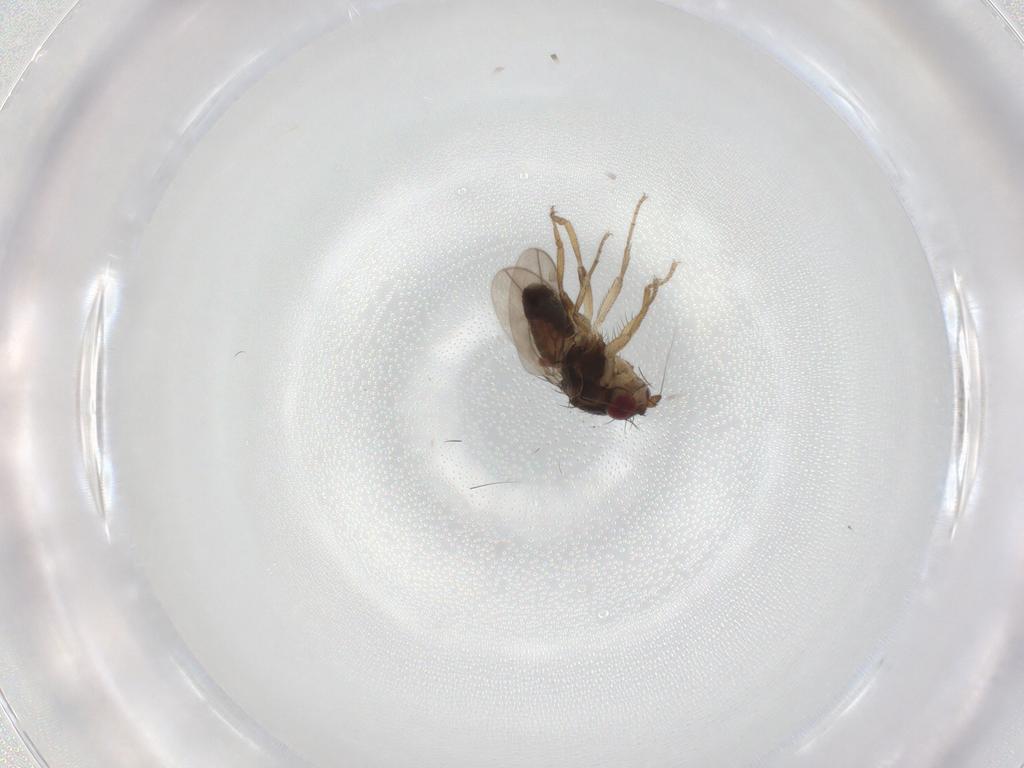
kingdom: Animalia
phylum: Arthropoda
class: Insecta
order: Diptera
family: Sphaeroceridae
